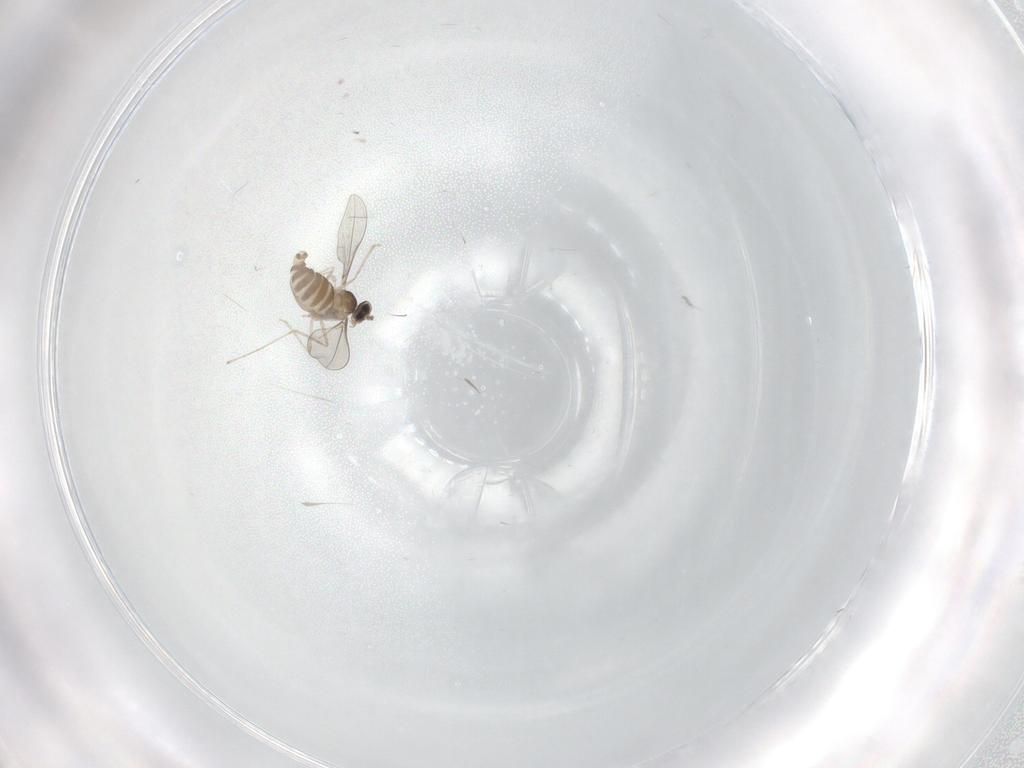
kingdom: Animalia
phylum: Arthropoda
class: Insecta
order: Diptera
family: Cecidomyiidae
